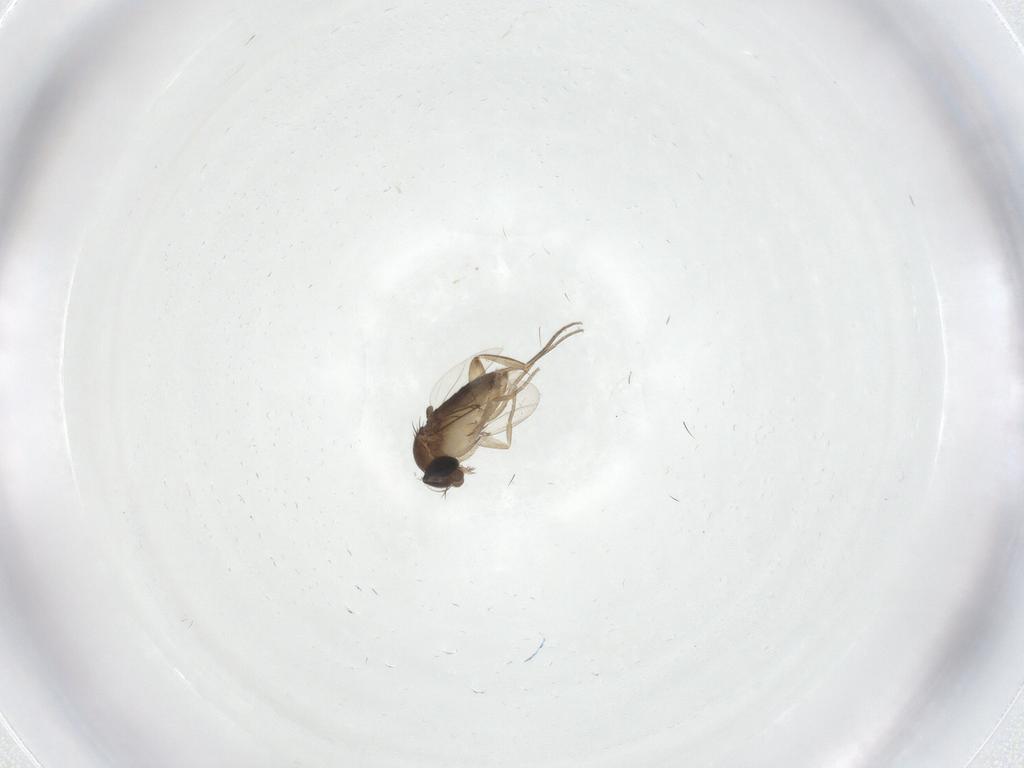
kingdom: Animalia
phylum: Arthropoda
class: Insecta
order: Diptera
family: Phoridae
